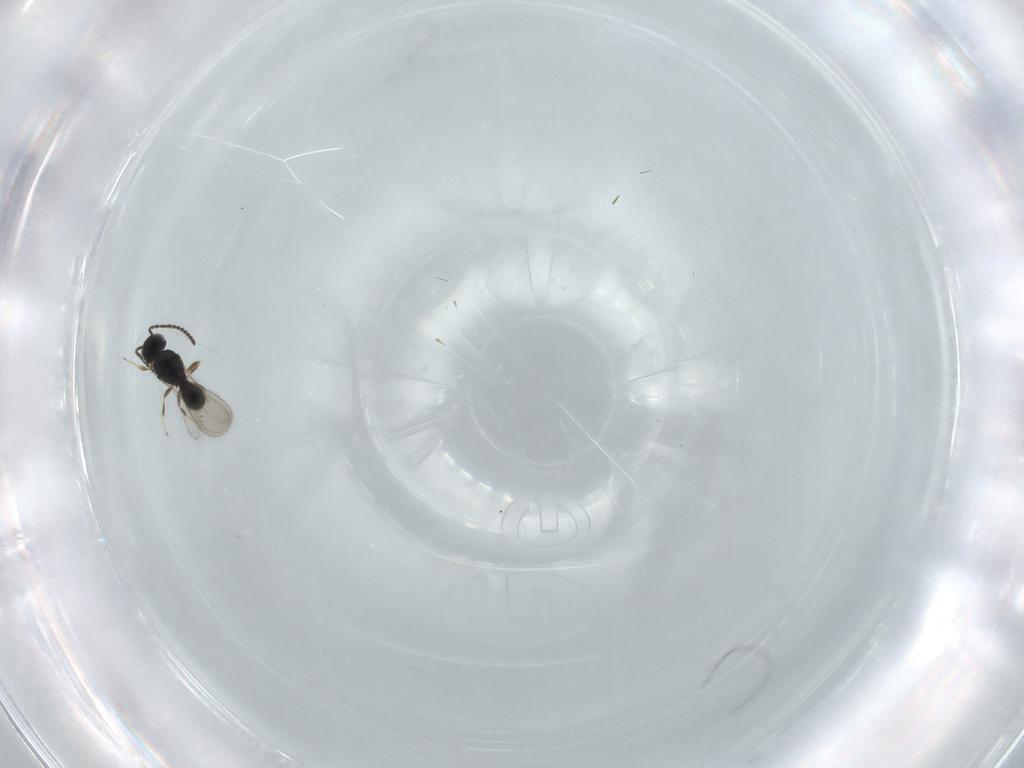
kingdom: Animalia
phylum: Arthropoda
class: Insecta
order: Hymenoptera
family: Scelionidae
